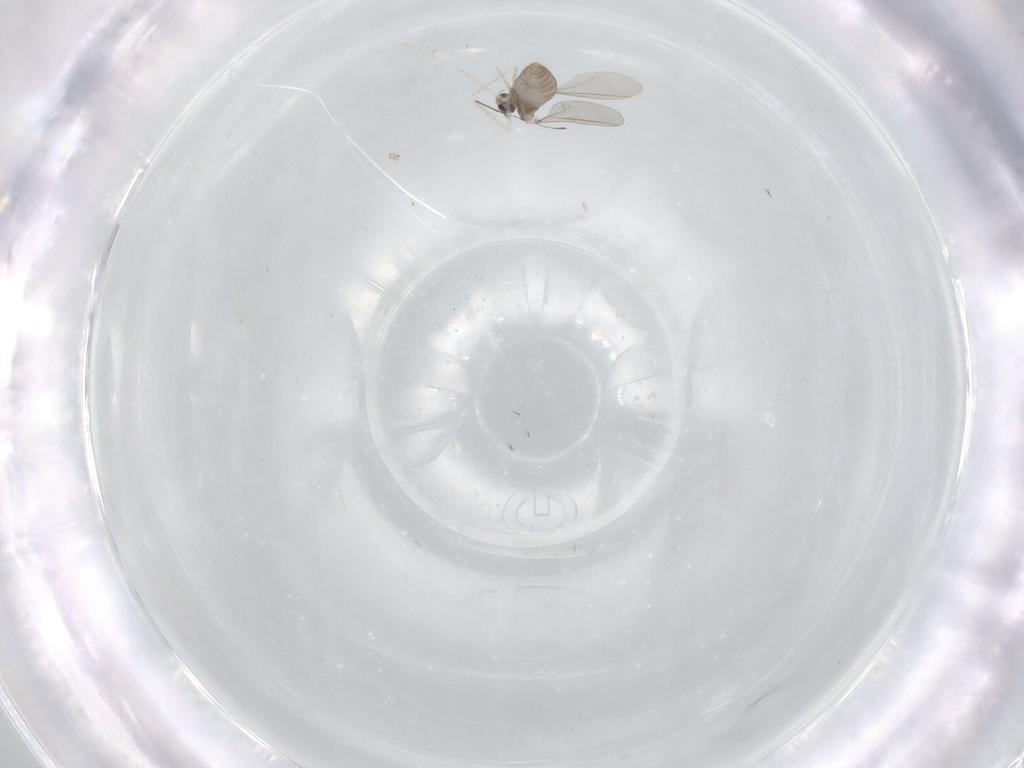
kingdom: Animalia
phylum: Arthropoda
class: Insecta
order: Diptera
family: Cecidomyiidae
